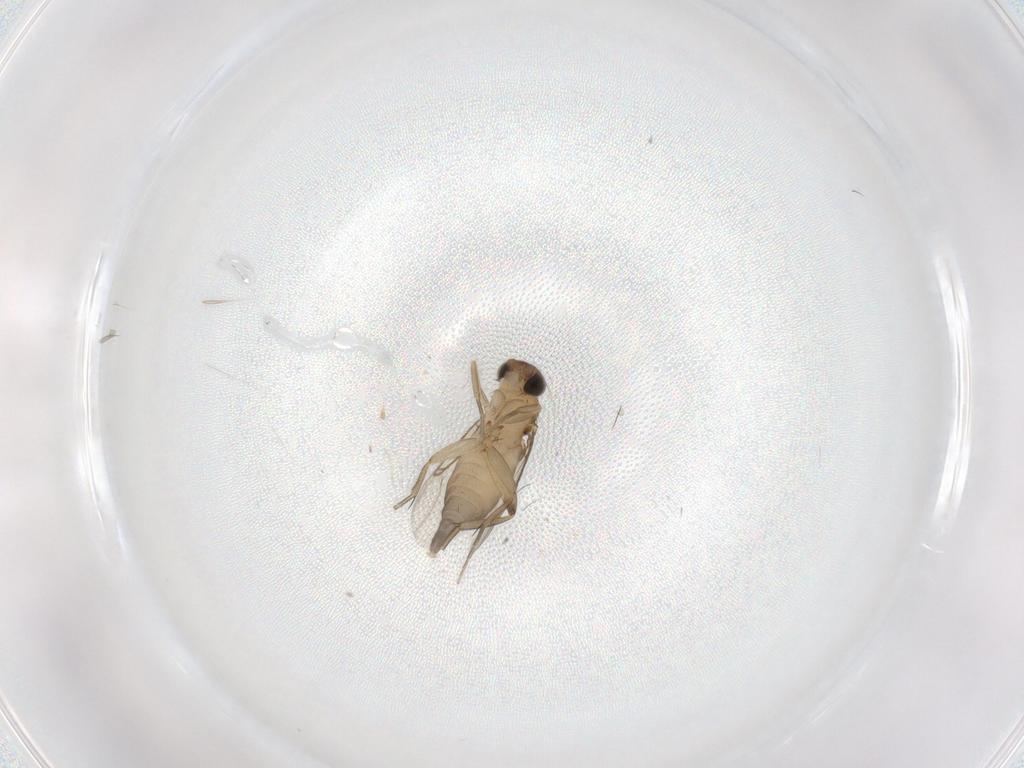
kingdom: Animalia
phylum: Arthropoda
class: Insecta
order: Diptera
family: Phoridae
